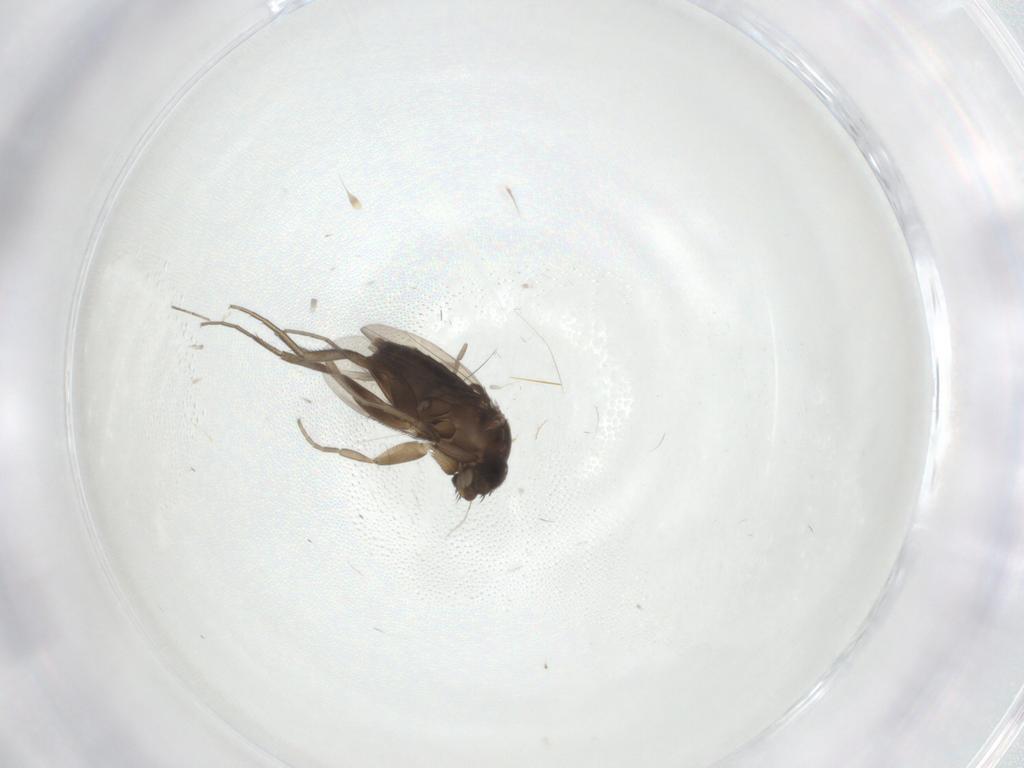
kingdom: Animalia
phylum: Arthropoda
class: Insecta
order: Diptera
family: Phoridae
